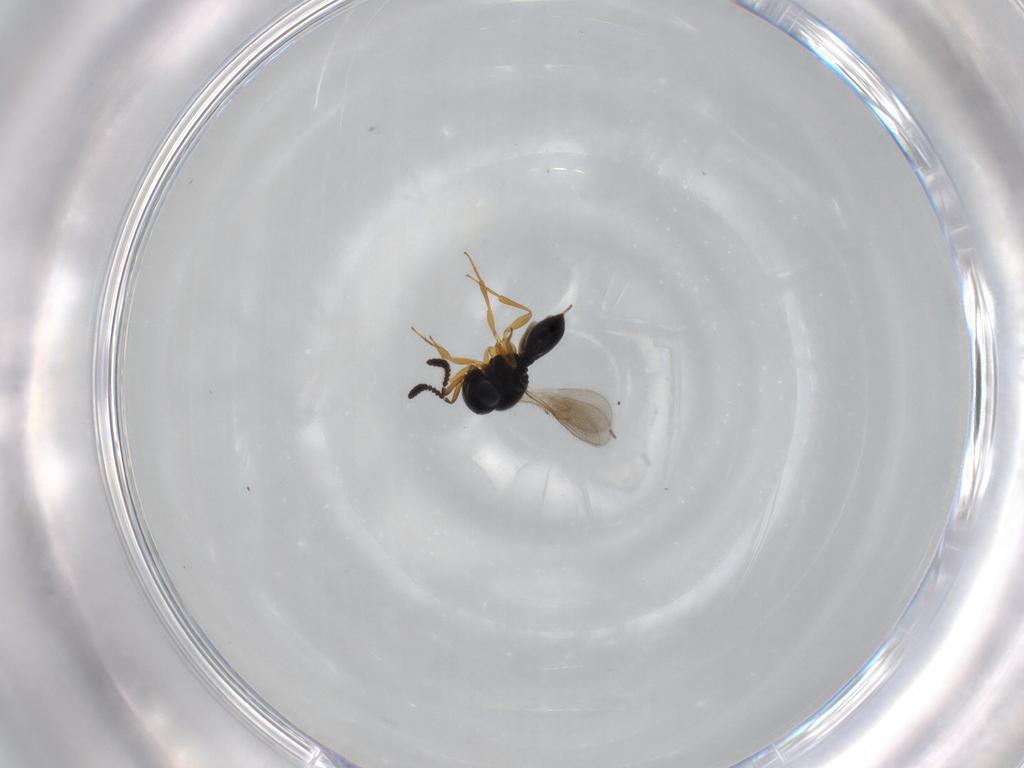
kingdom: Animalia
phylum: Arthropoda
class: Insecta
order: Hymenoptera
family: Scelionidae
